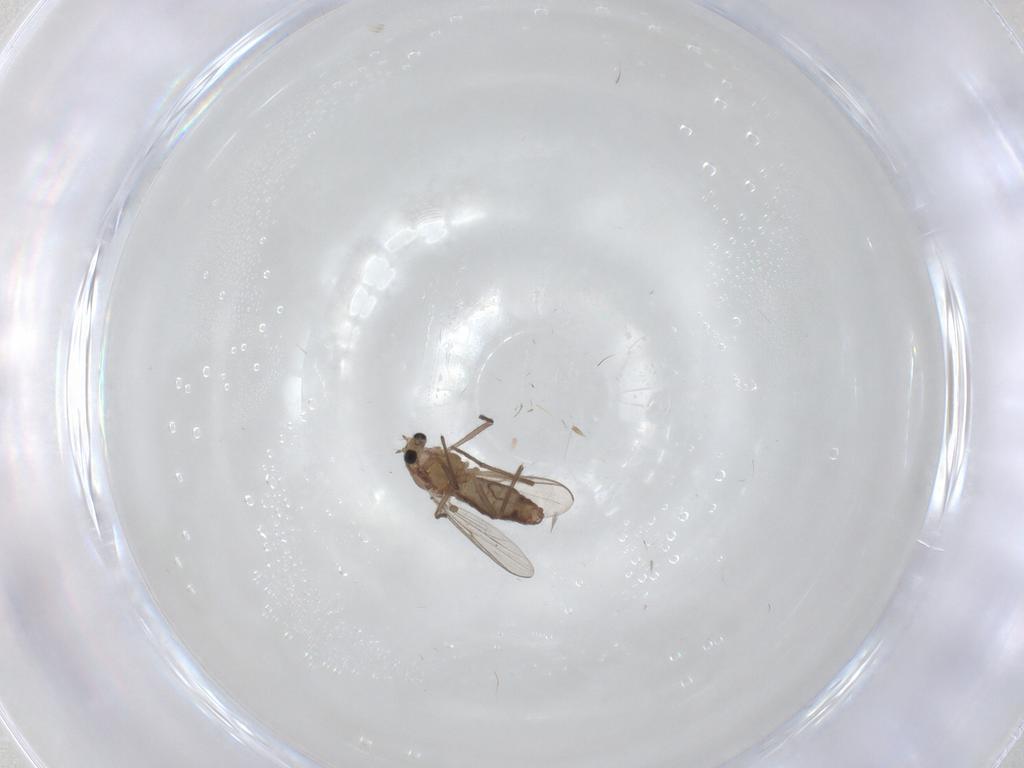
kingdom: Animalia
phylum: Arthropoda
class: Insecta
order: Diptera
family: Chironomidae
